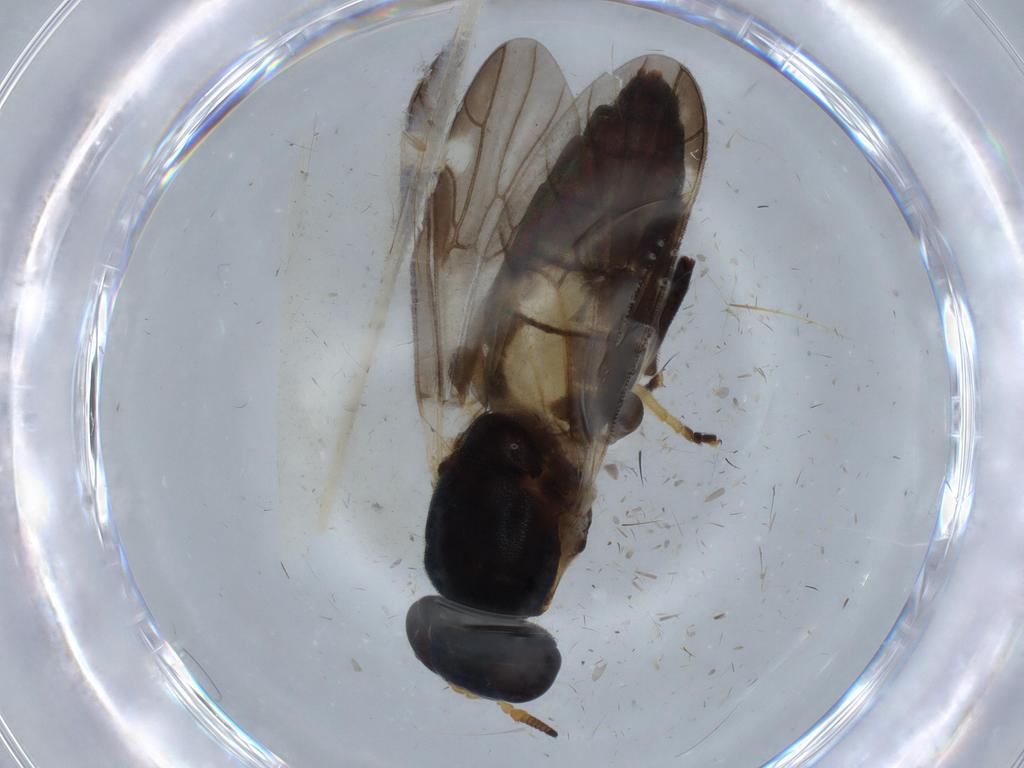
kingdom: Animalia
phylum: Arthropoda
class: Insecta
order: Diptera
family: Stratiomyidae
